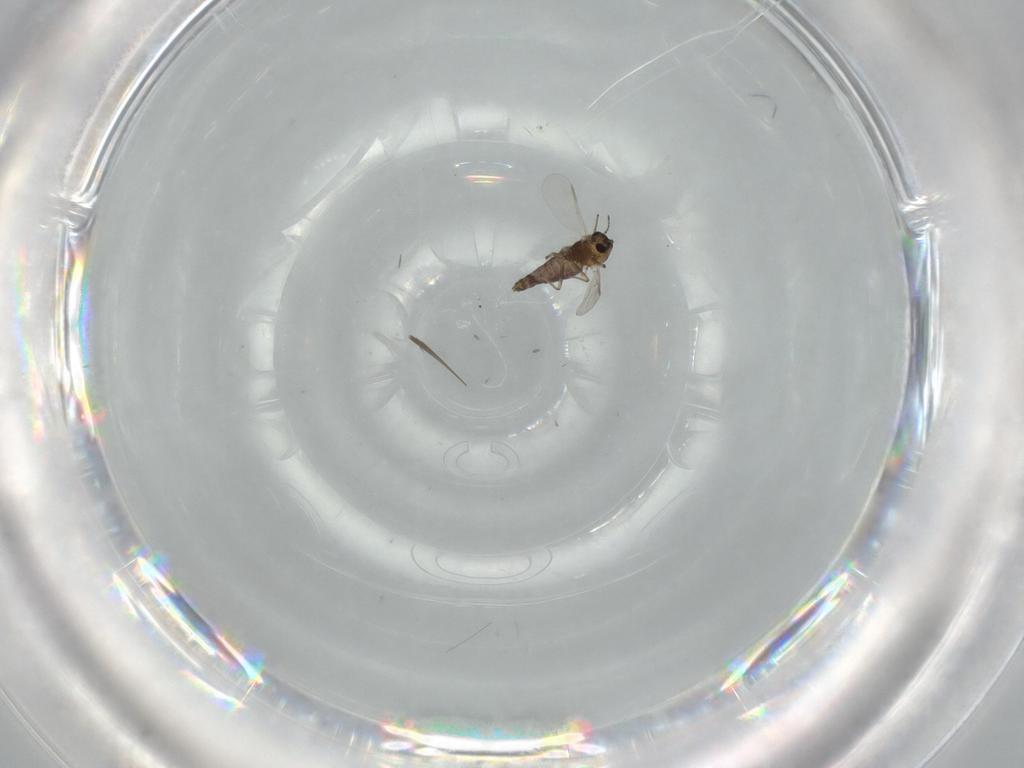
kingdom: Animalia
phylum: Arthropoda
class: Insecta
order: Diptera
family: Chironomidae
